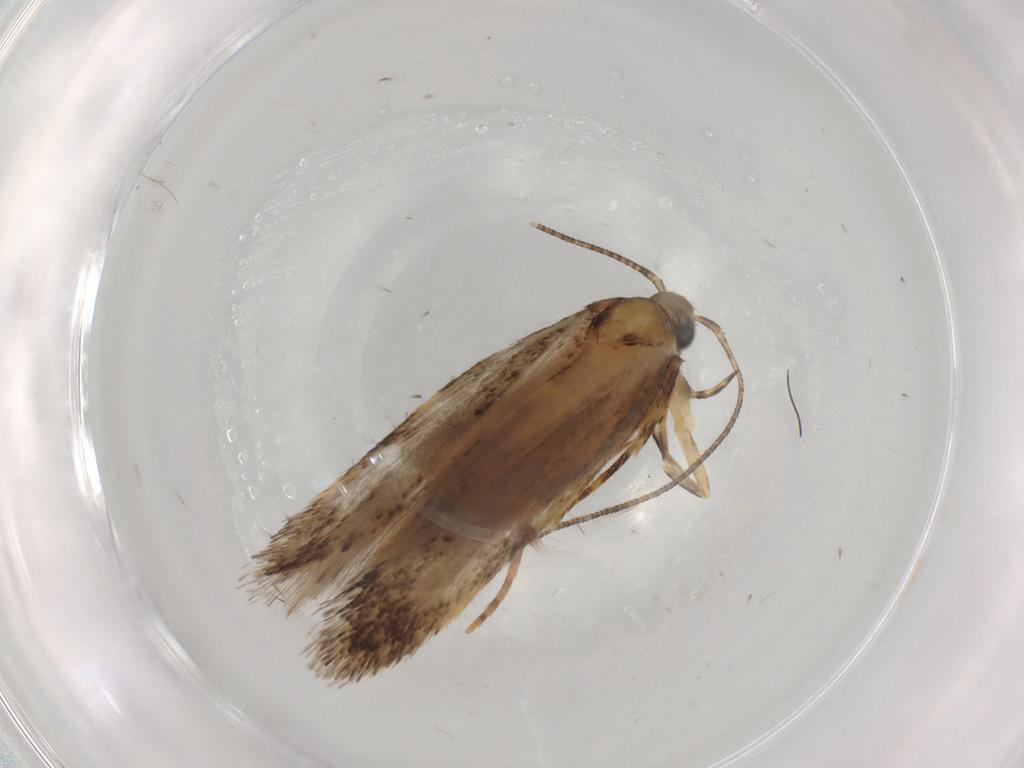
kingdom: Animalia
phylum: Arthropoda
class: Insecta
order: Lepidoptera
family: Autostichidae
